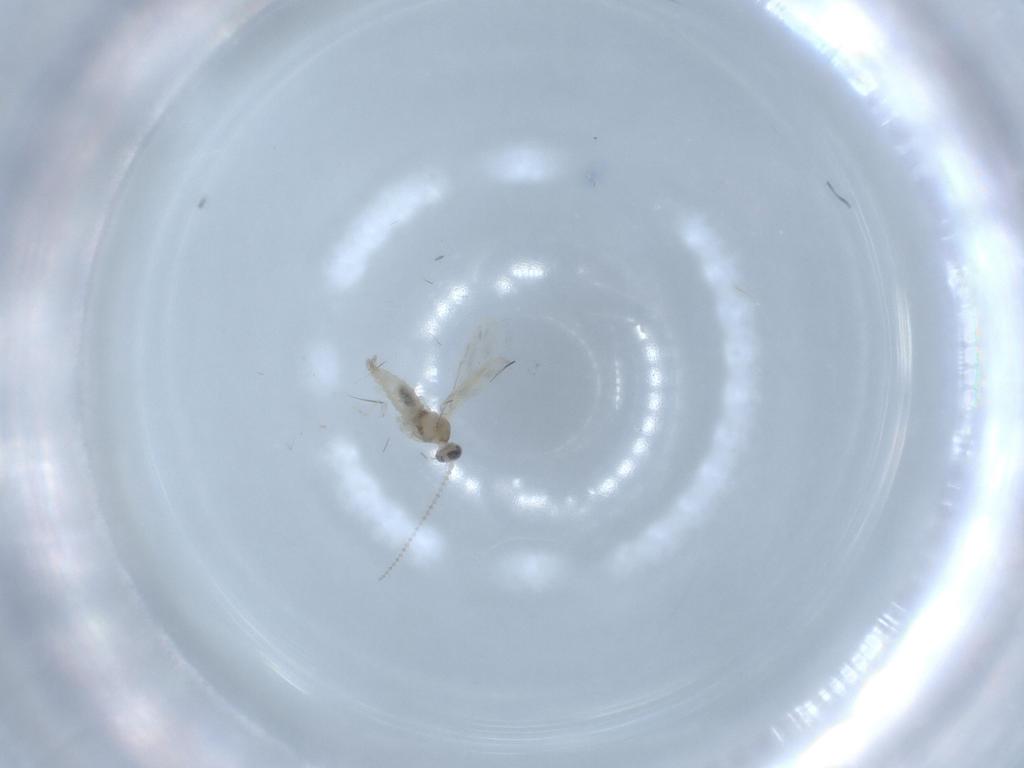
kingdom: Animalia
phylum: Arthropoda
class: Insecta
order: Diptera
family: Cecidomyiidae
